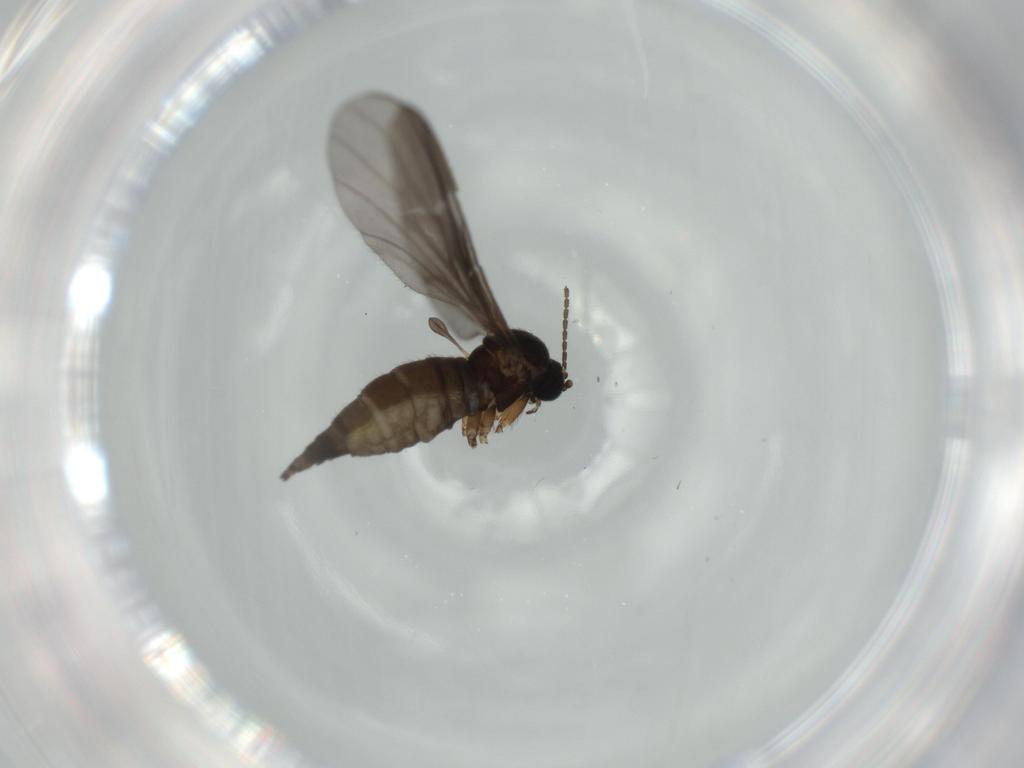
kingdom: Animalia
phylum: Arthropoda
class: Insecta
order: Diptera
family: Sciaridae
